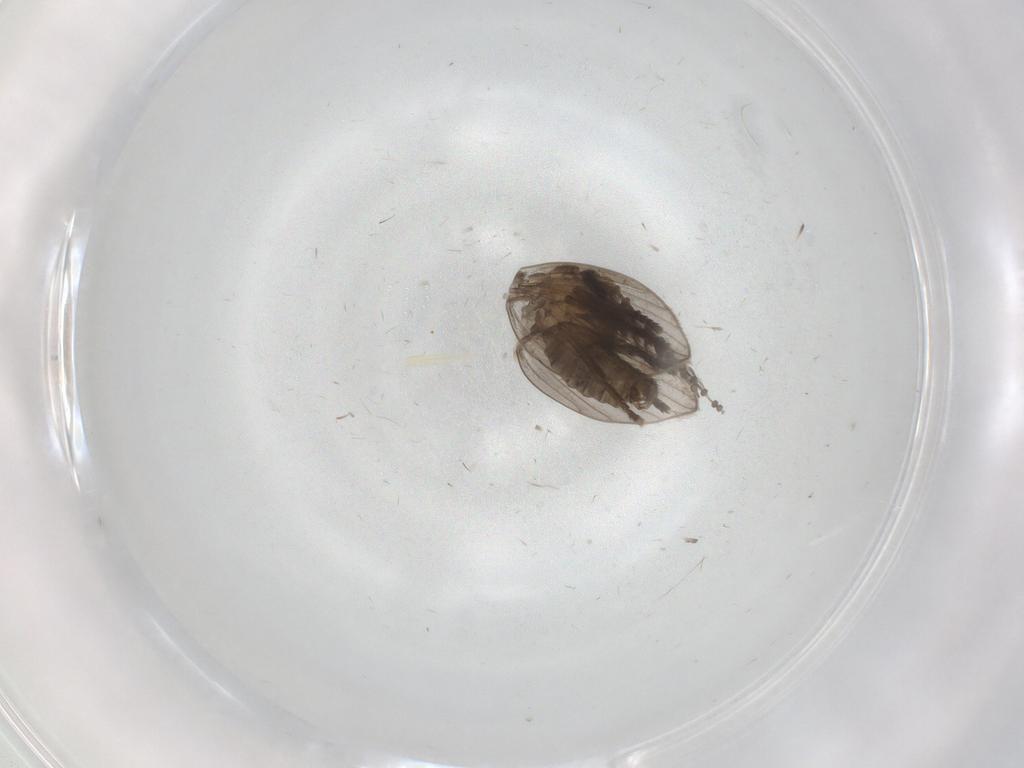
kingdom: Animalia
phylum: Arthropoda
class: Insecta
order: Diptera
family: Psychodidae
